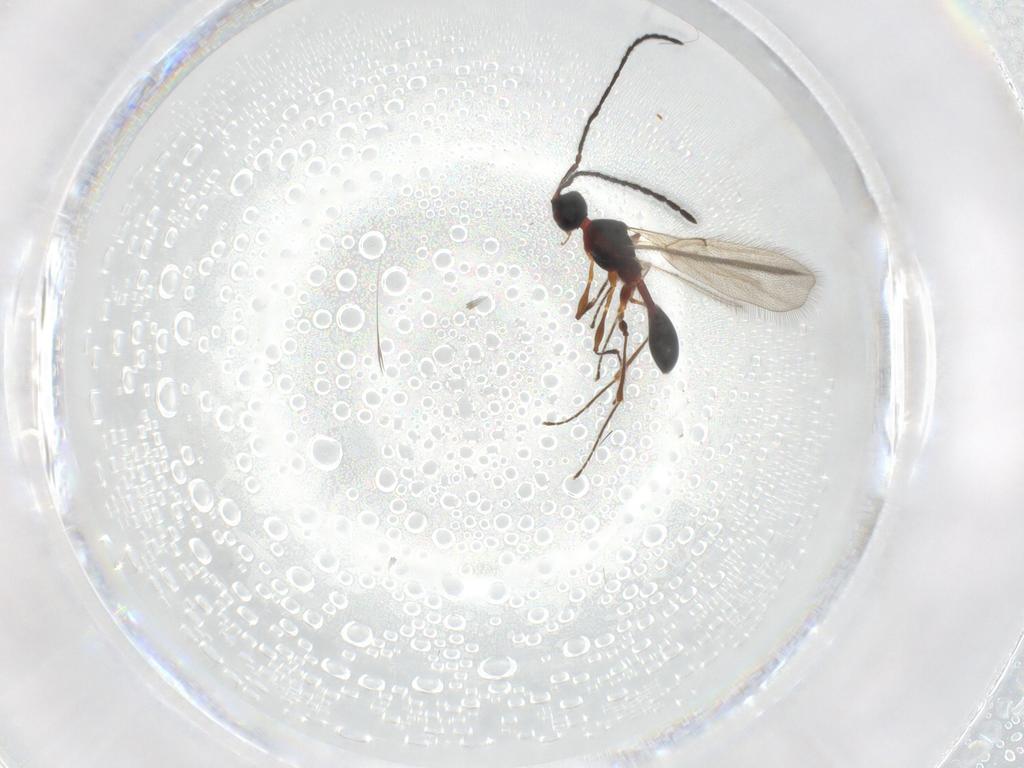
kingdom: Animalia
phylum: Arthropoda
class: Insecta
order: Hymenoptera
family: Diapriidae
